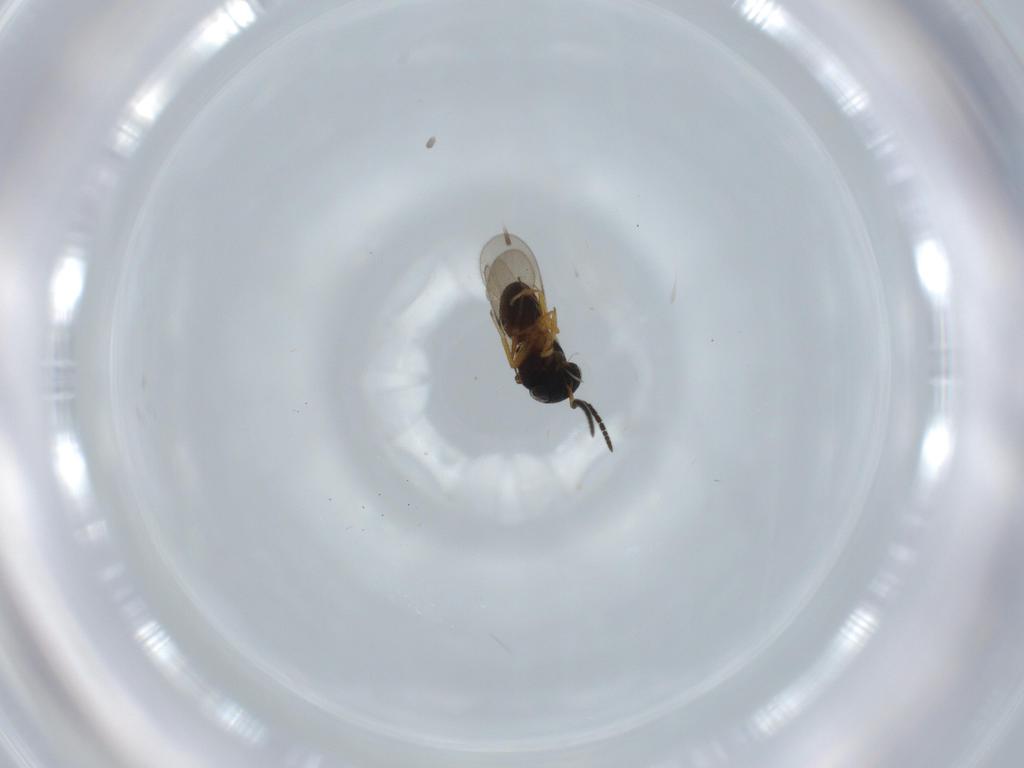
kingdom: Animalia
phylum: Arthropoda
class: Insecta
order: Hymenoptera
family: Scelionidae
